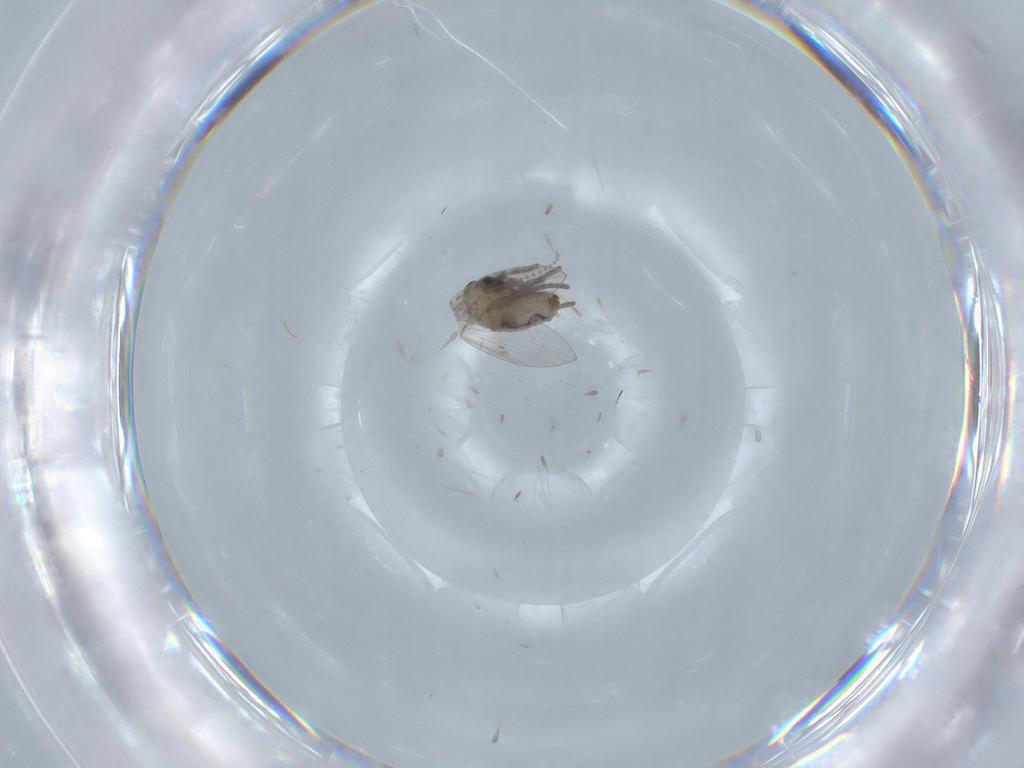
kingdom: Animalia
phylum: Arthropoda
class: Insecta
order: Diptera
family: Psychodidae
